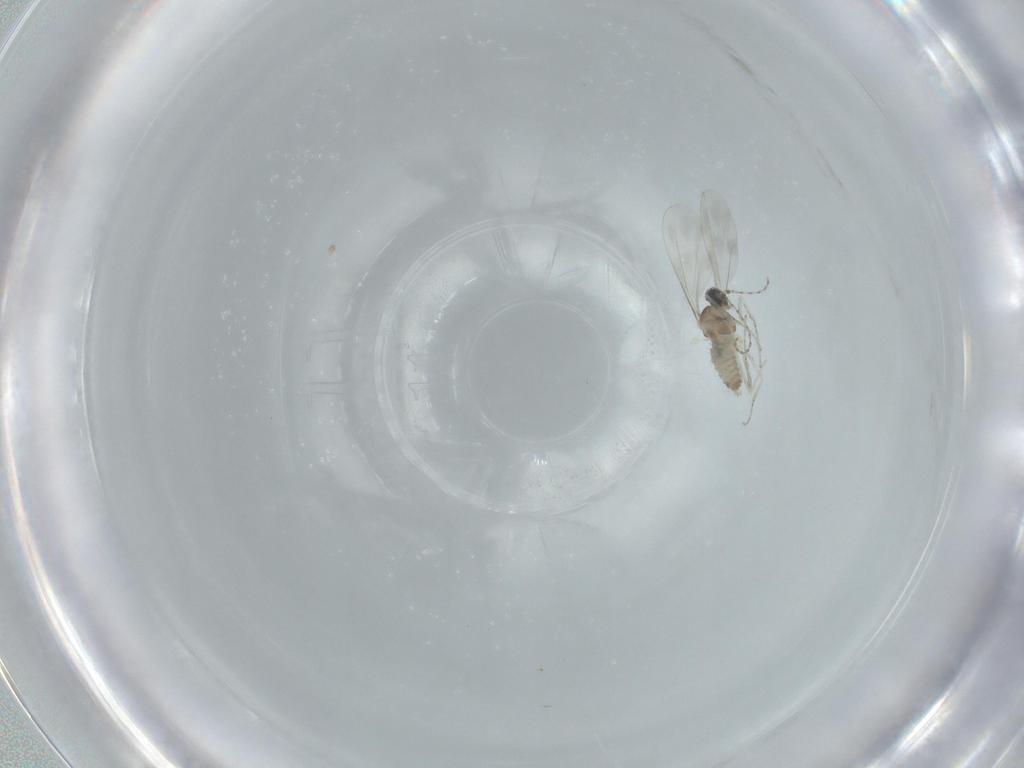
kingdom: Animalia
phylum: Arthropoda
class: Insecta
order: Diptera
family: Cecidomyiidae
